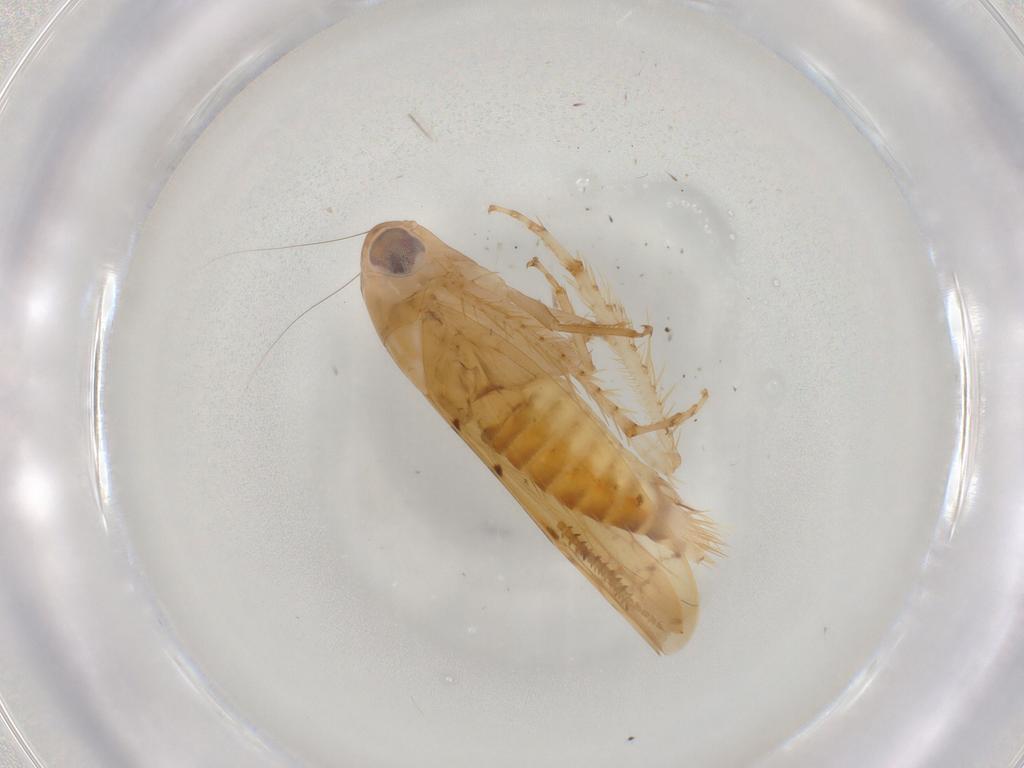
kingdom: Animalia
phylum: Arthropoda
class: Insecta
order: Hemiptera
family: Cicadellidae
